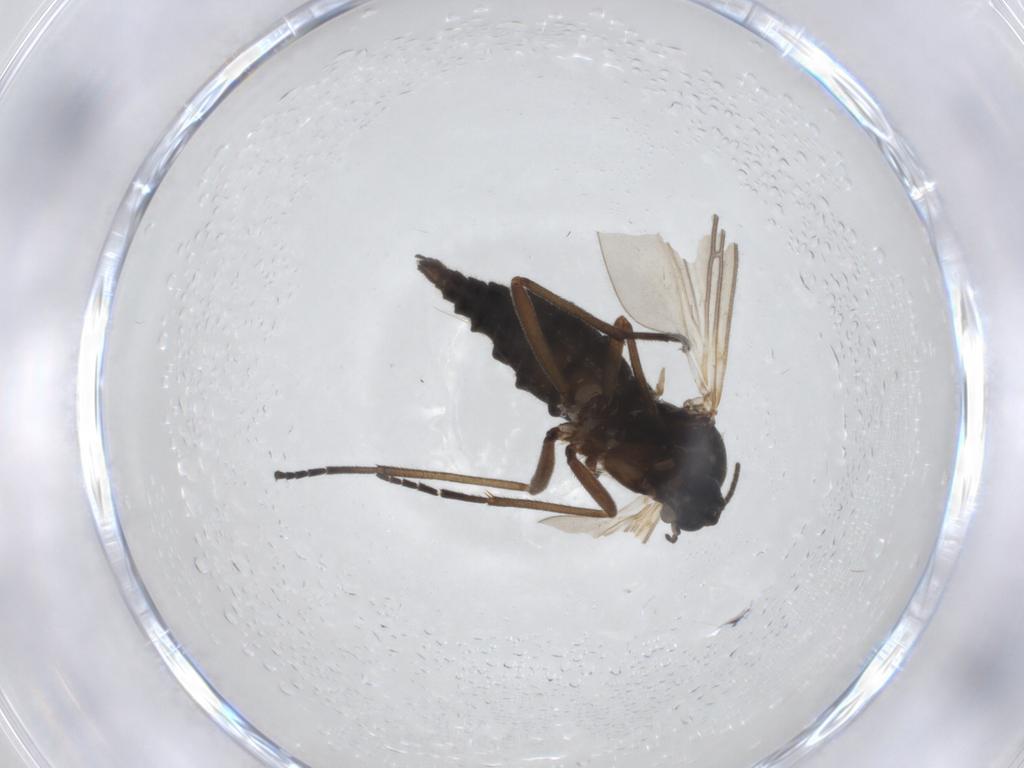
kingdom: Animalia
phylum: Arthropoda
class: Insecta
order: Diptera
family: Sciaridae
